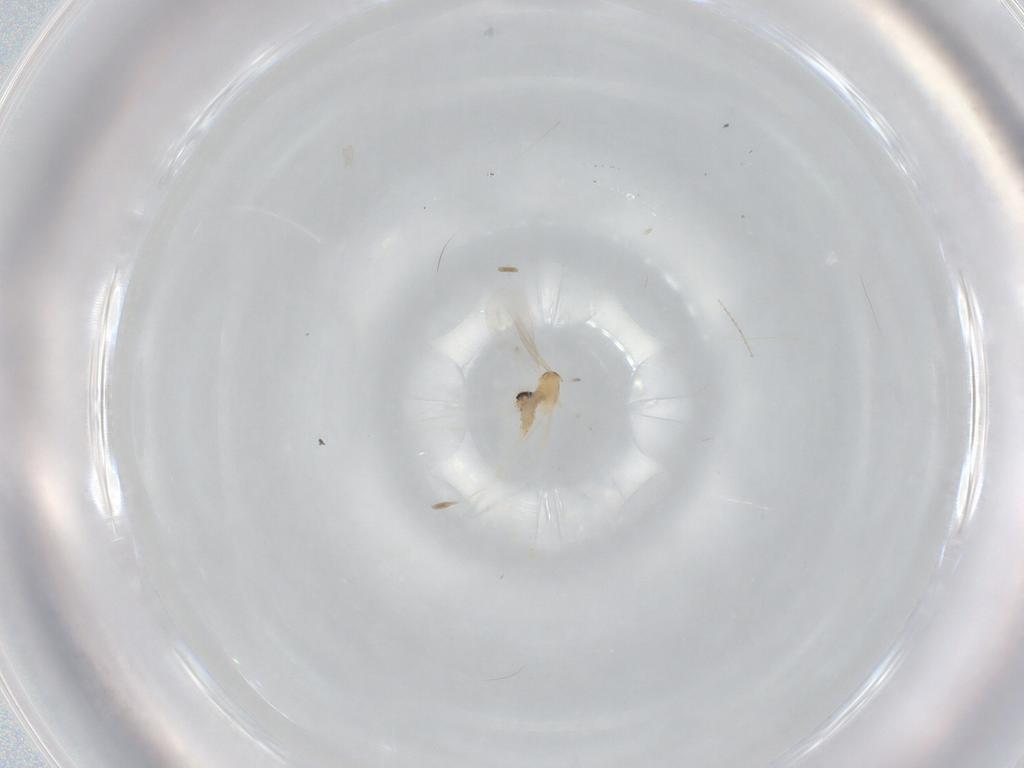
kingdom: Animalia
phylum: Arthropoda
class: Insecta
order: Diptera
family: Cecidomyiidae
